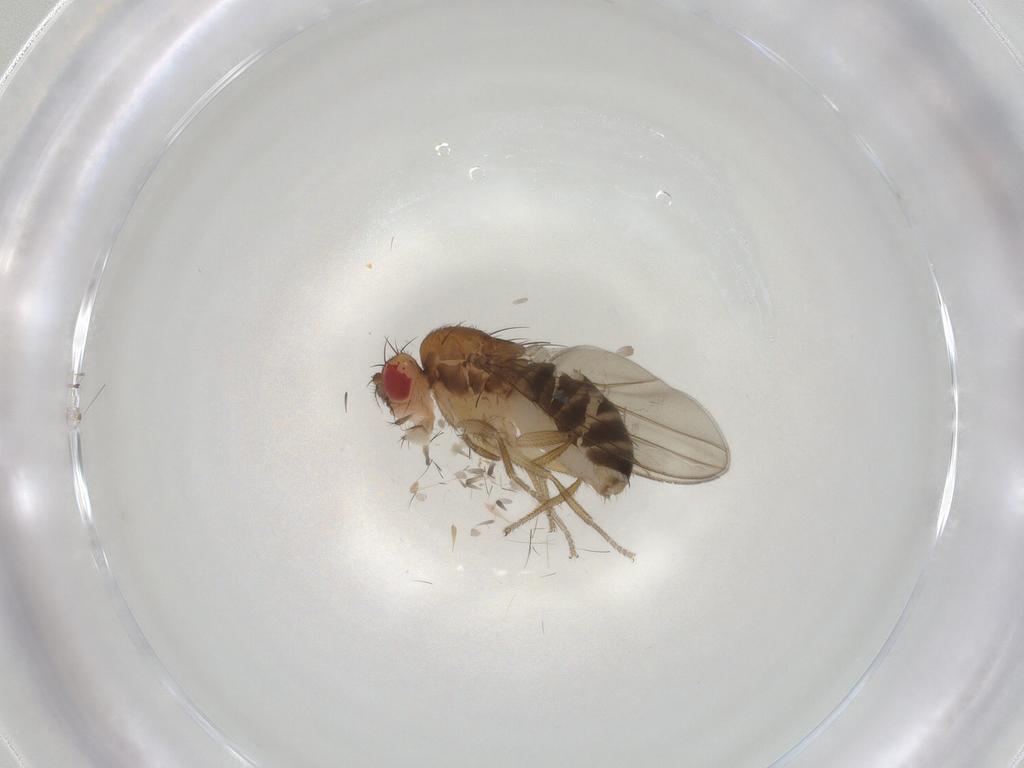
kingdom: Animalia
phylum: Arthropoda
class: Insecta
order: Diptera
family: Drosophilidae
